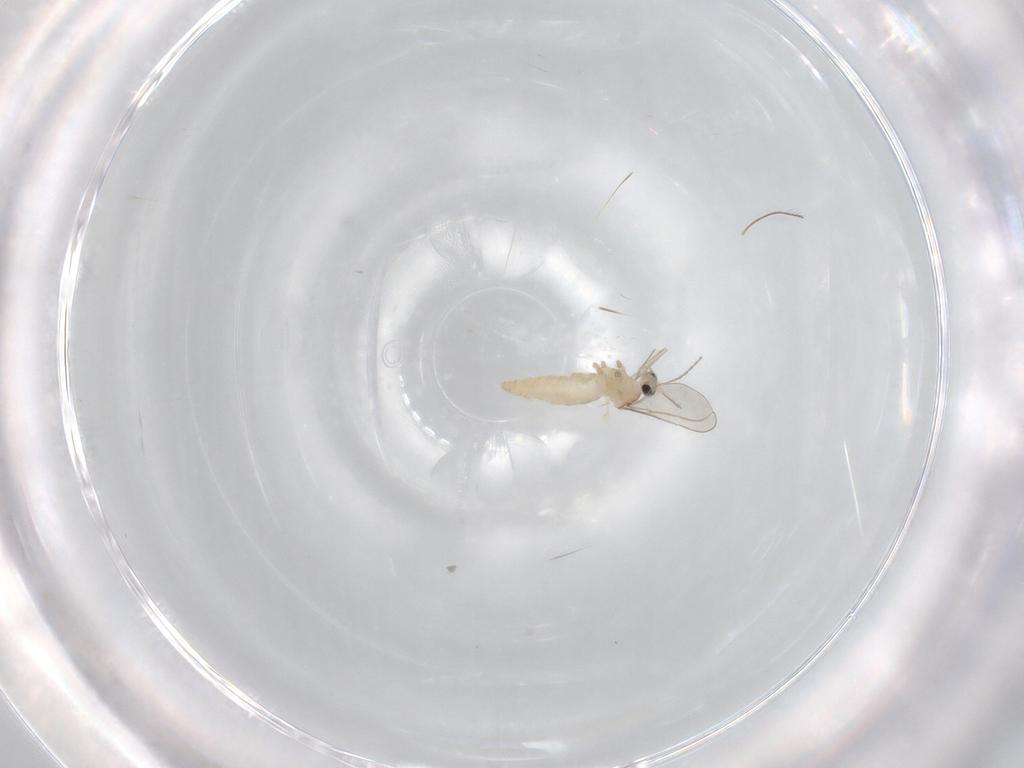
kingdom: Animalia
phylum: Arthropoda
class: Insecta
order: Diptera
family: Cecidomyiidae
